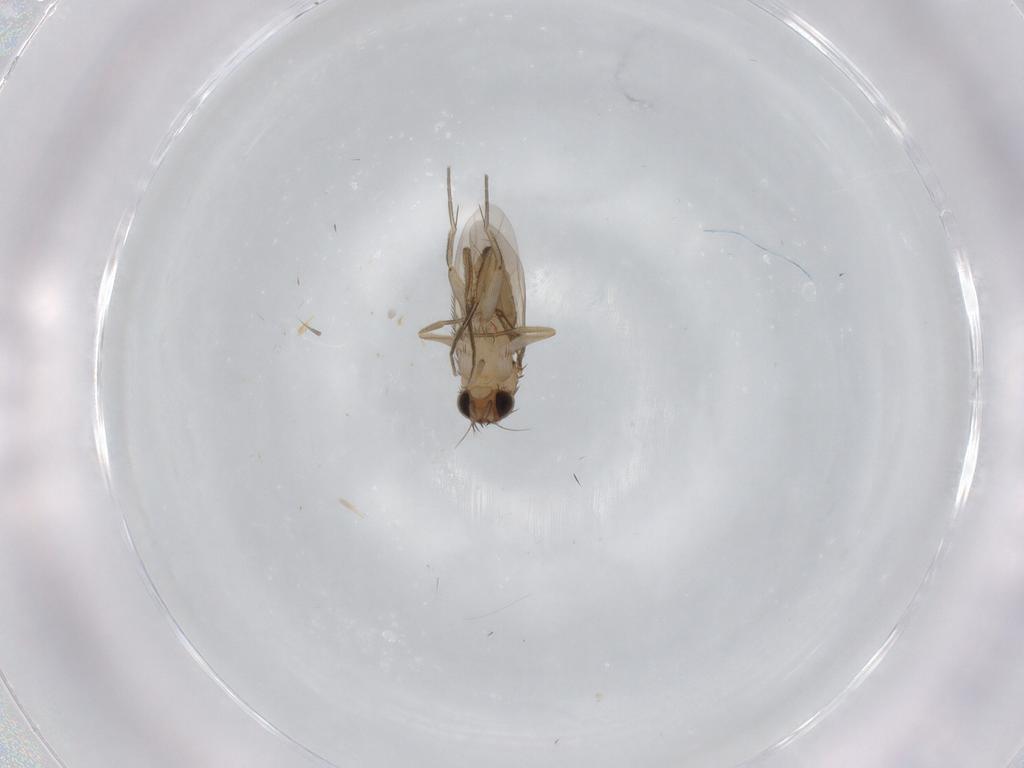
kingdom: Animalia
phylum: Arthropoda
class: Insecta
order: Diptera
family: Phoridae
